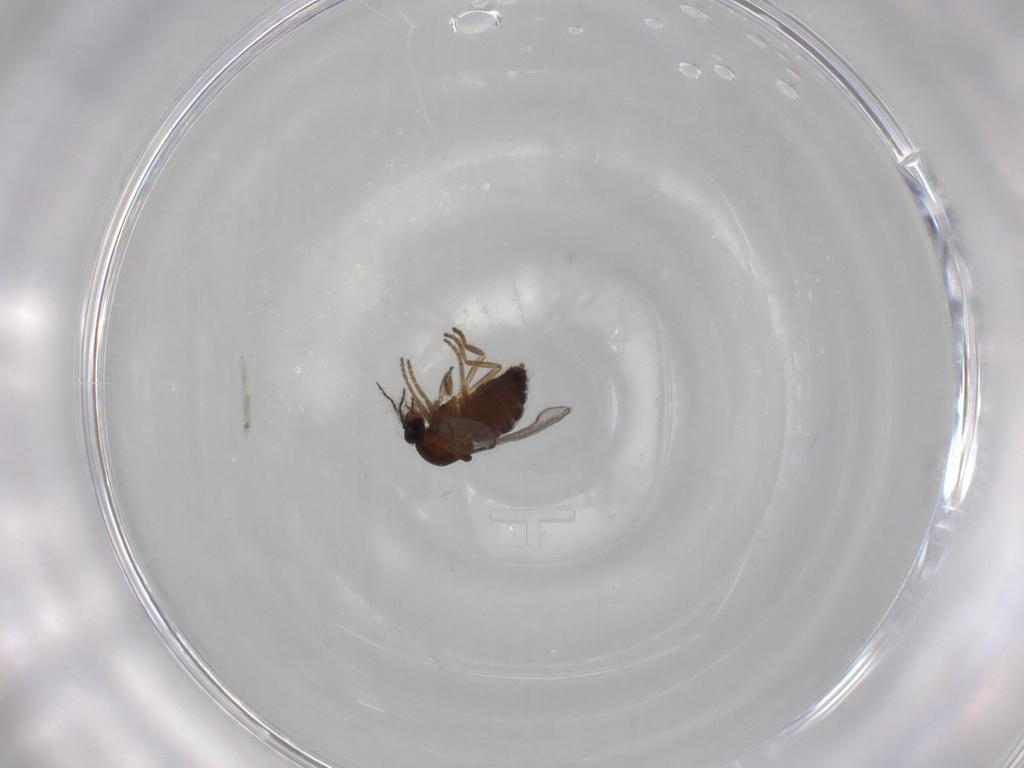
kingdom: Animalia
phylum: Arthropoda
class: Insecta
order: Diptera
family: Ceratopogonidae
